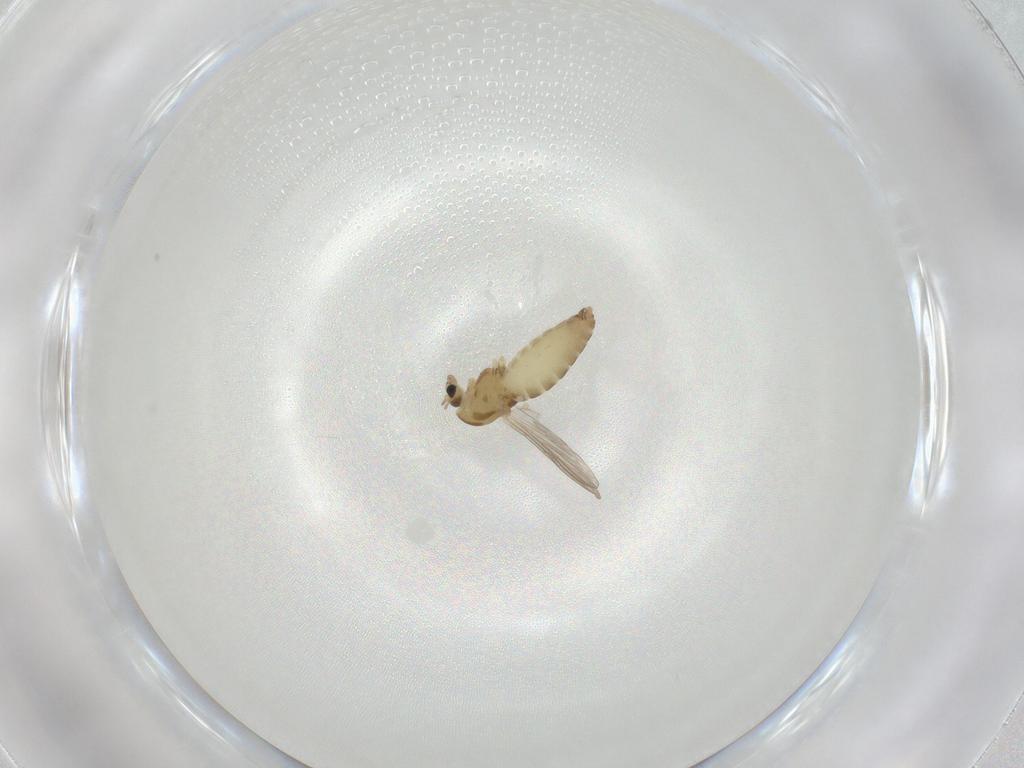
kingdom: Animalia
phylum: Arthropoda
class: Insecta
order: Diptera
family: Chironomidae
